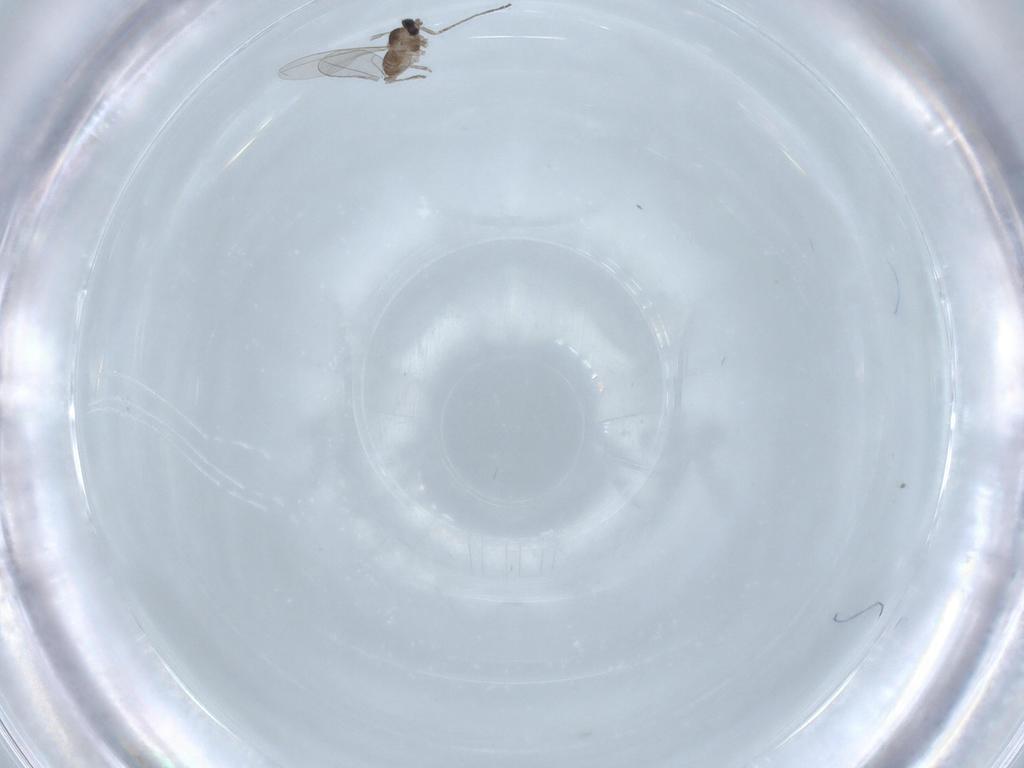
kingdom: Animalia
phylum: Arthropoda
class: Insecta
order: Diptera
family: Cecidomyiidae
